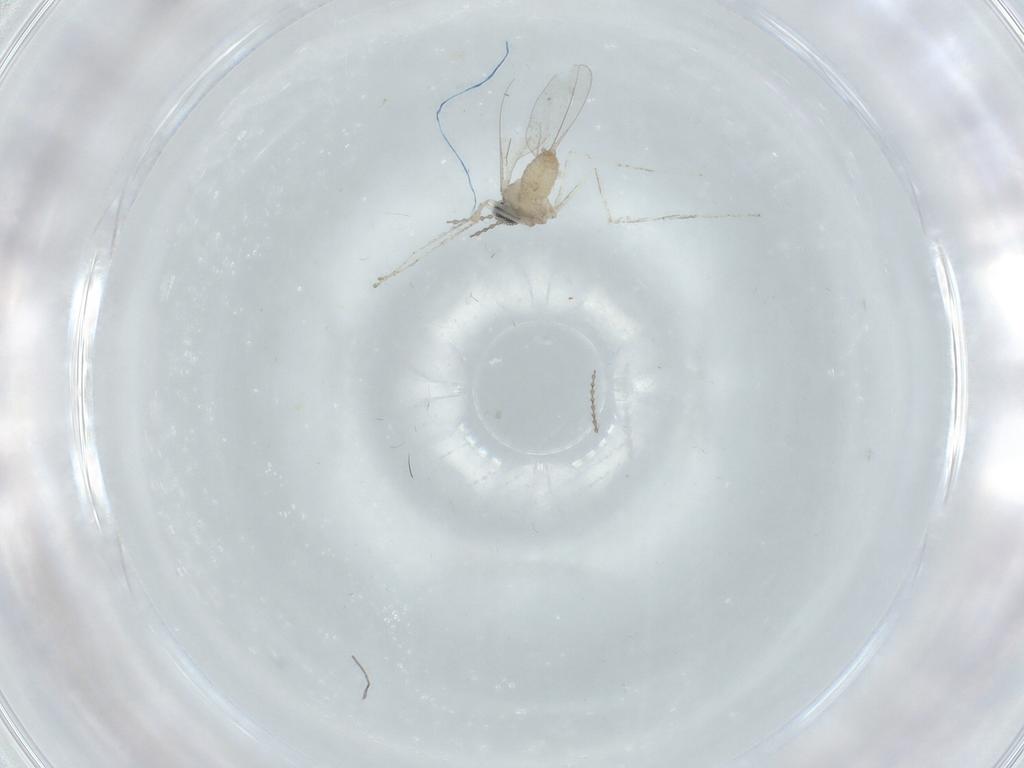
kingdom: Animalia
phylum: Arthropoda
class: Insecta
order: Diptera
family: Cecidomyiidae
